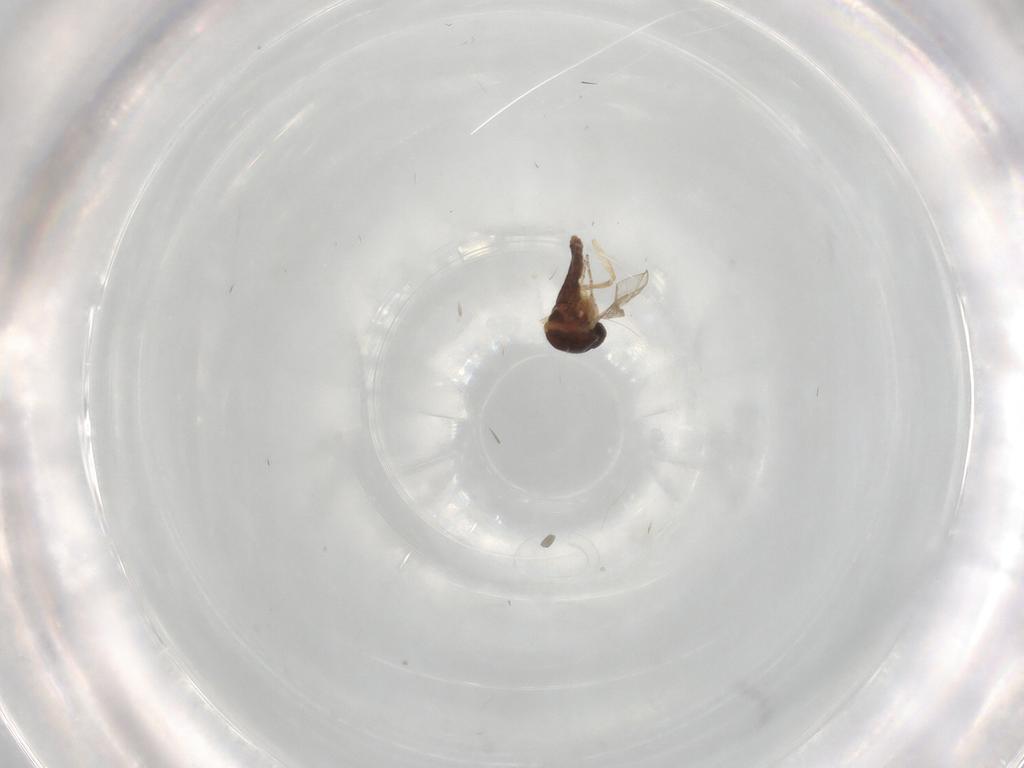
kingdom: Animalia
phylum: Arthropoda
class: Insecta
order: Diptera
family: Ceratopogonidae
